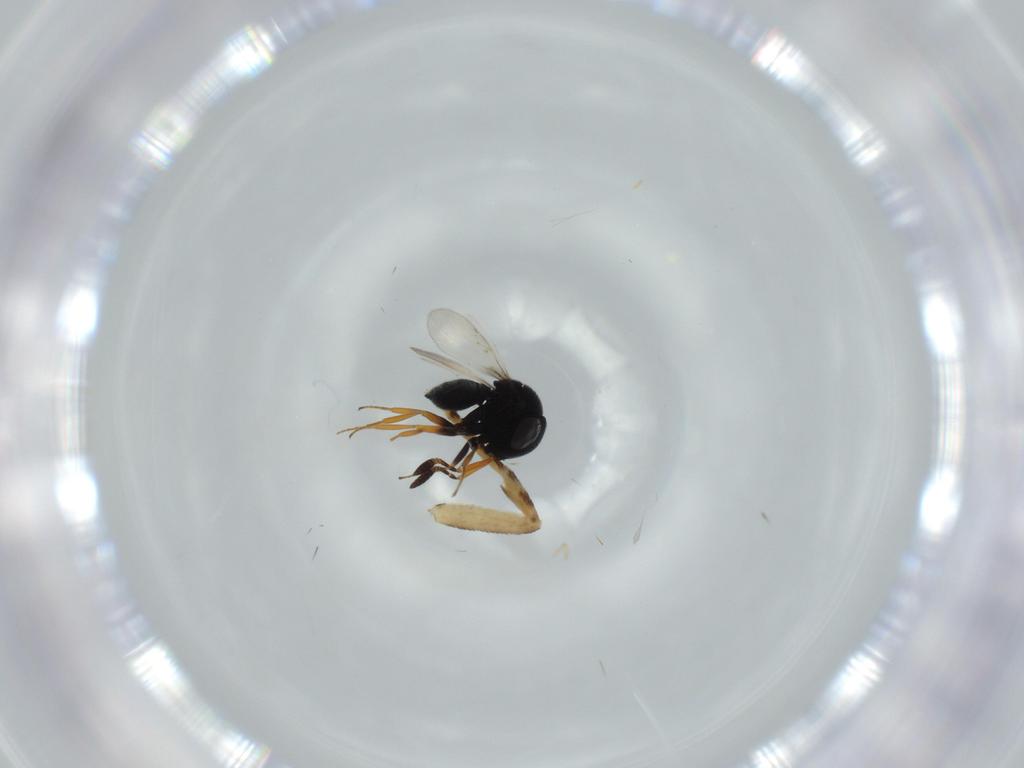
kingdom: Animalia
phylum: Arthropoda
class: Insecta
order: Hymenoptera
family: Scelionidae
